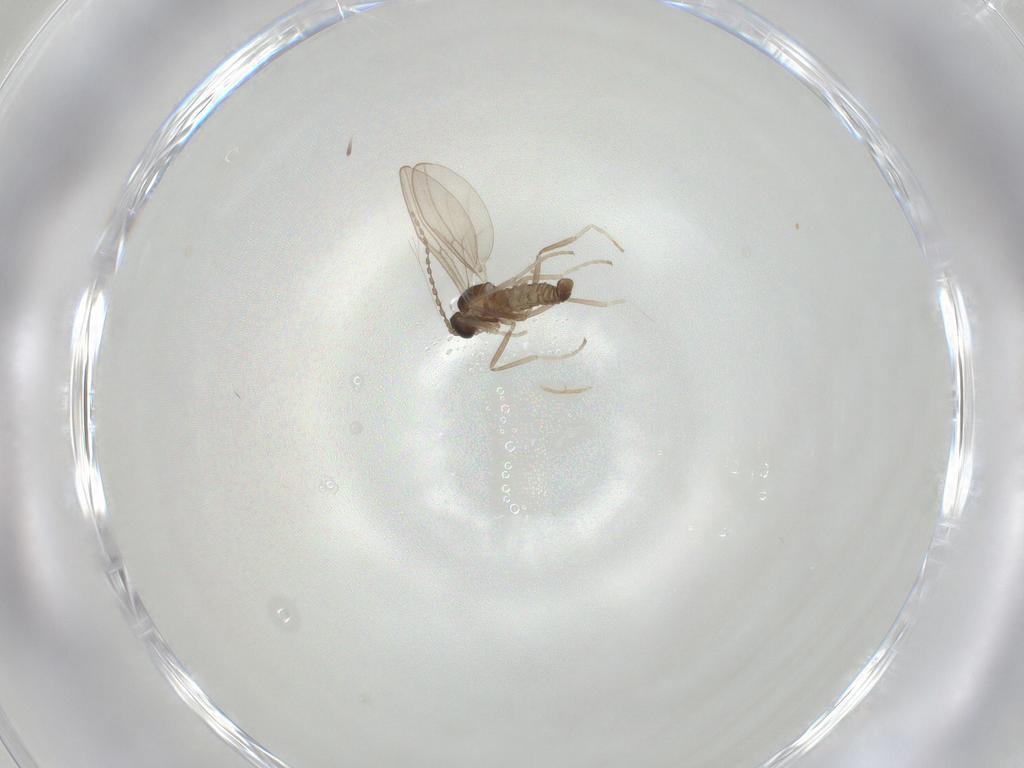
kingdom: Animalia
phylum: Arthropoda
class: Insecta
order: Diptera
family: Cecidomyiidae
